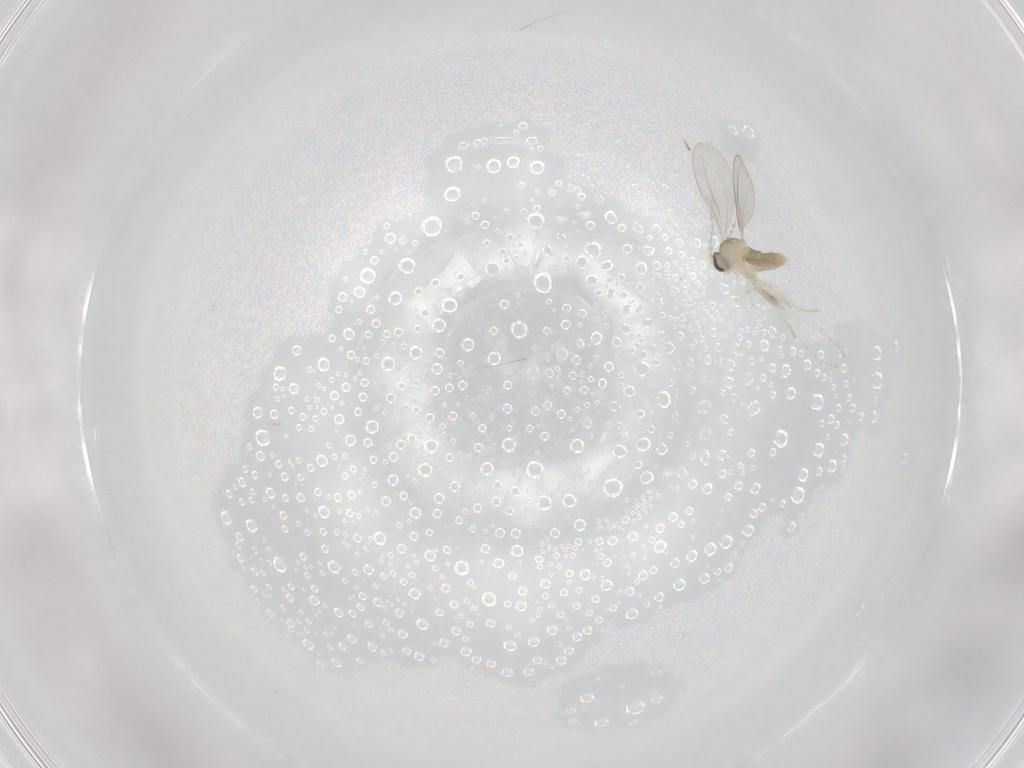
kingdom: Animalia
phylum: Arthropoda
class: Insecta
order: Diptera
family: Cecidomyiidae
